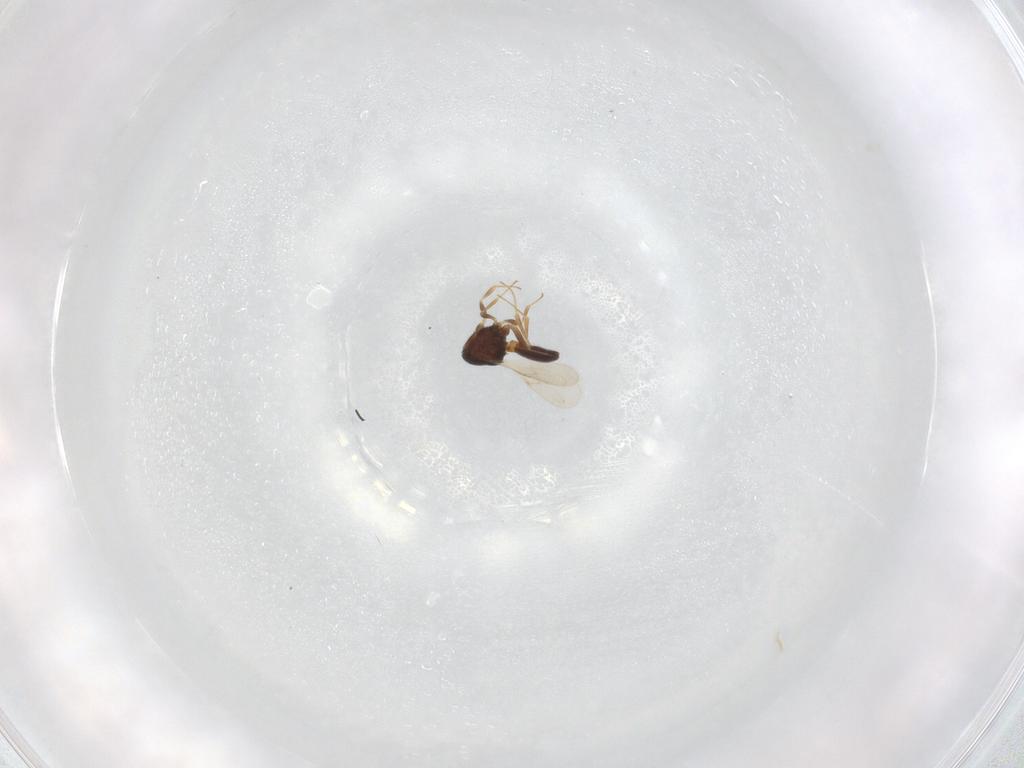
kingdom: Animalia
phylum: Arthropoda
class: Insecta
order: Hymenoptera
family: Scelionidae
